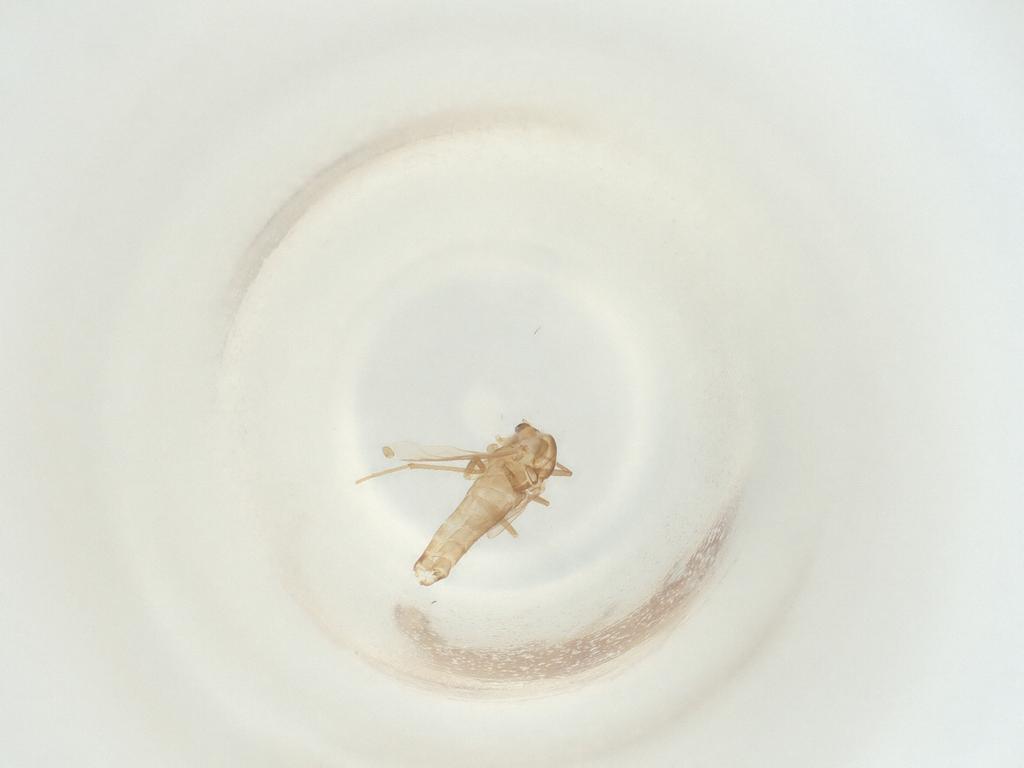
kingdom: Animalia
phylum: Arthropoda
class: Insecta
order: Diptera
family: Chironomidae
